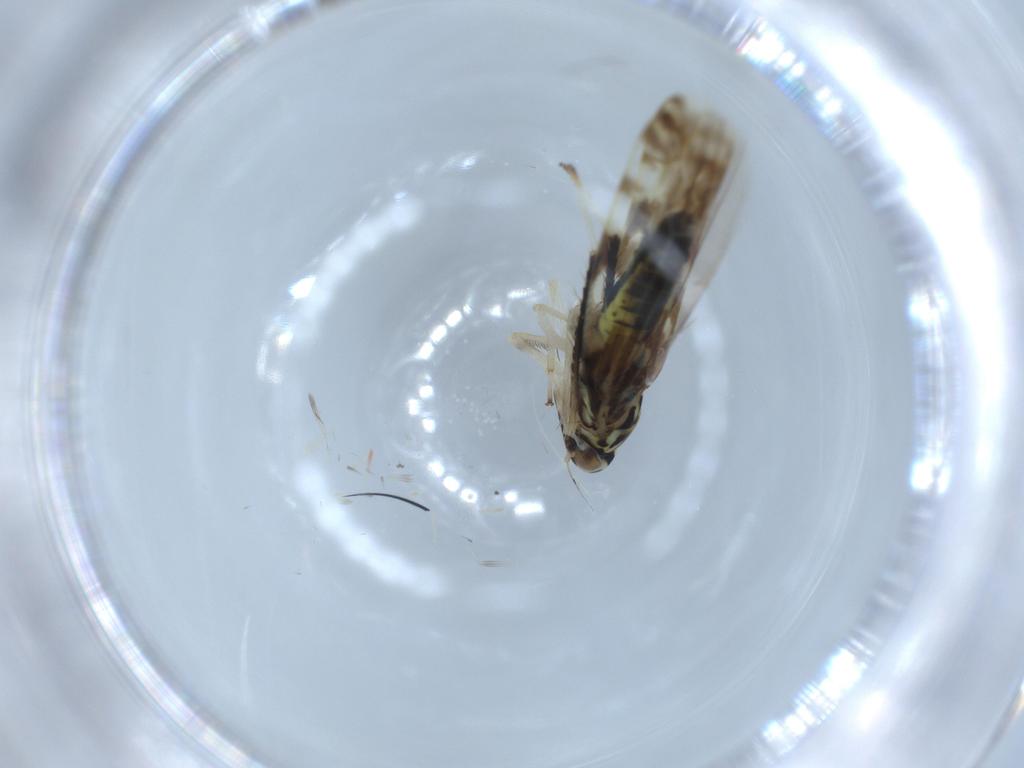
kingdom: Animalia
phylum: Arthropoda
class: Insecta
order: Hemiptera
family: Cicadellidae
